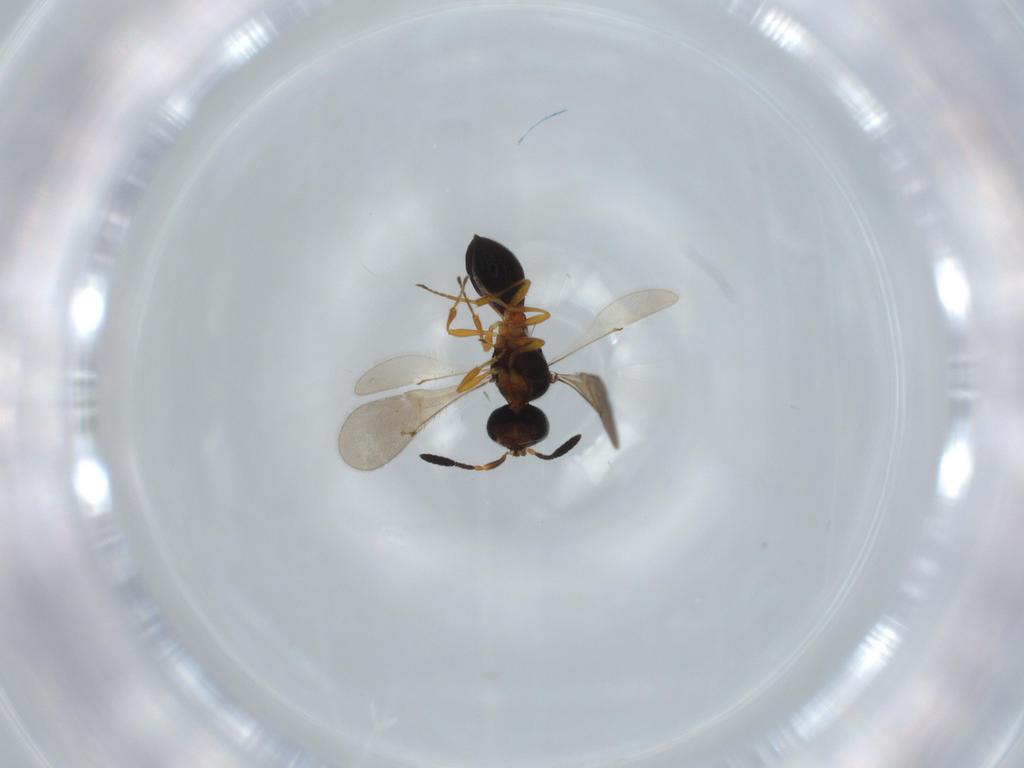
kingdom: Animalia
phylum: Arthropoda
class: Insecta
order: Hymenoptera
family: Scelionidae
